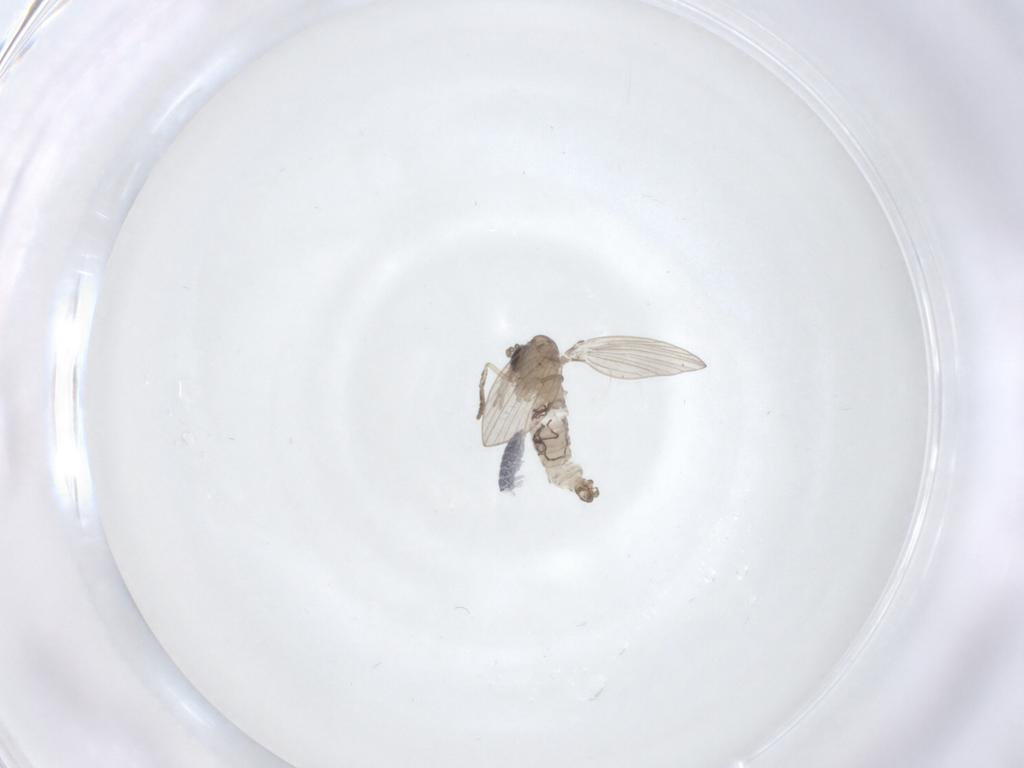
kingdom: Animalia
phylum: Arthropoda
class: Insecta
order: Diptera
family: Psychodidae
